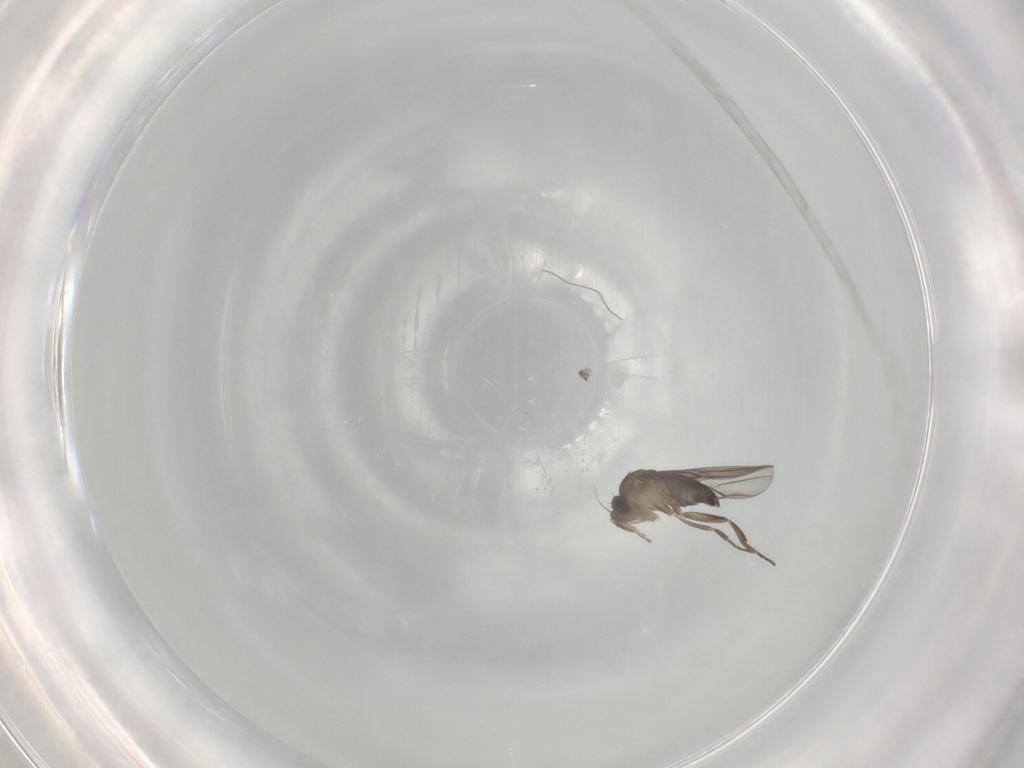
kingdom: Animalia
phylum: Arthropoda
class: Insecta
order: Diptera
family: Phoridae
